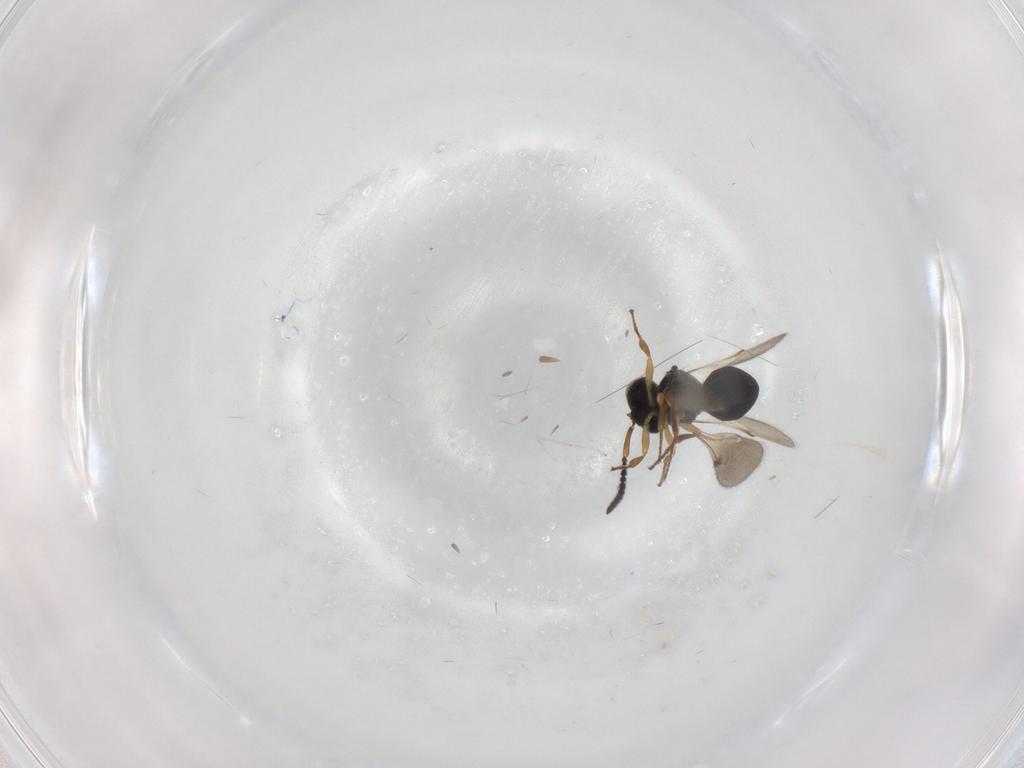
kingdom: Animalia
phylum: Arthropoda
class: Insecta
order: Hymenoptera
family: Scelionidae
